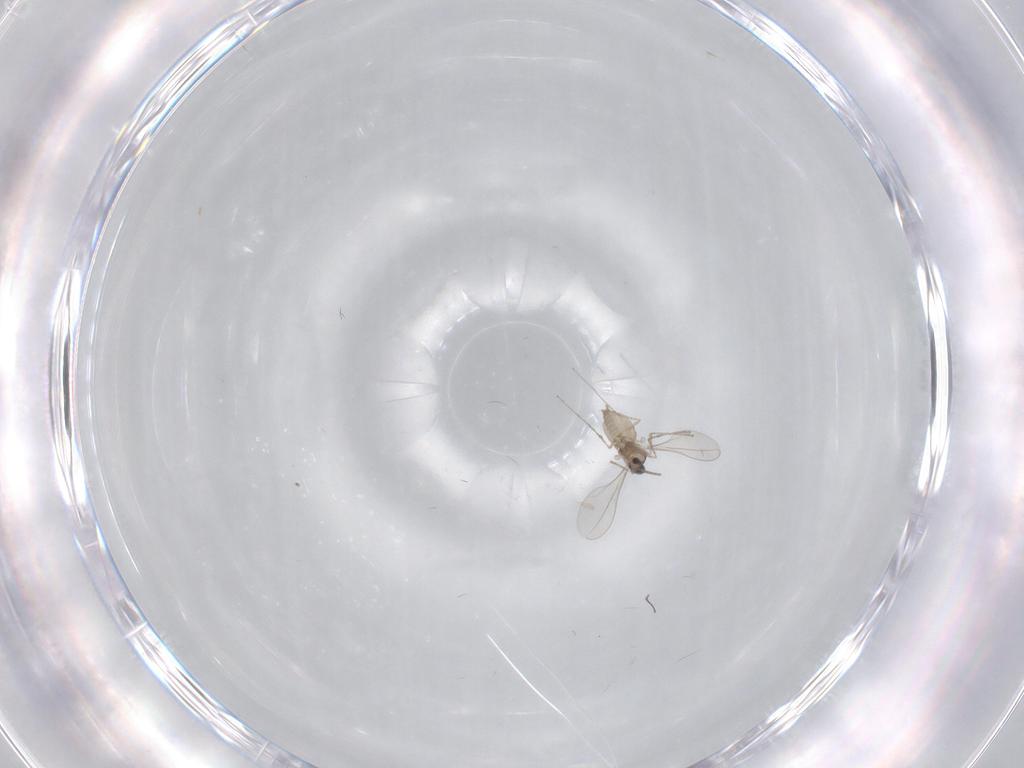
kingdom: Animalia
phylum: Arthropoda
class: Insecta
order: Diptera
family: Cecidomyiidae
